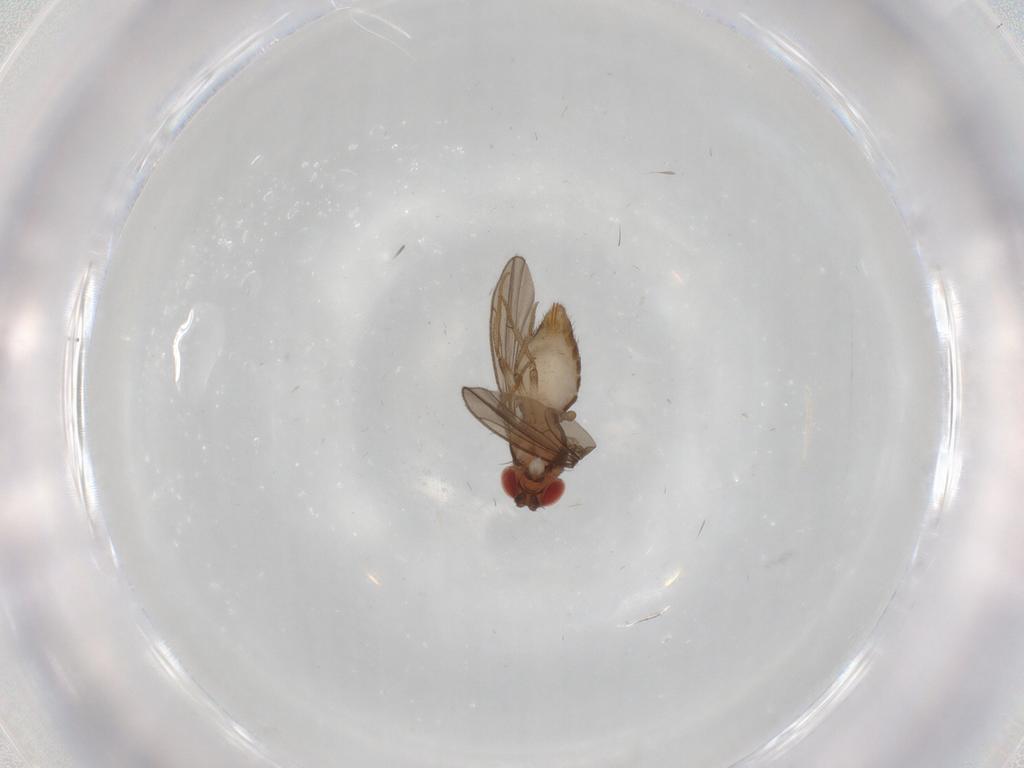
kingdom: Animalia
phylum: Arthropoda
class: Insecta
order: Diptera
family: Drosophilidae
